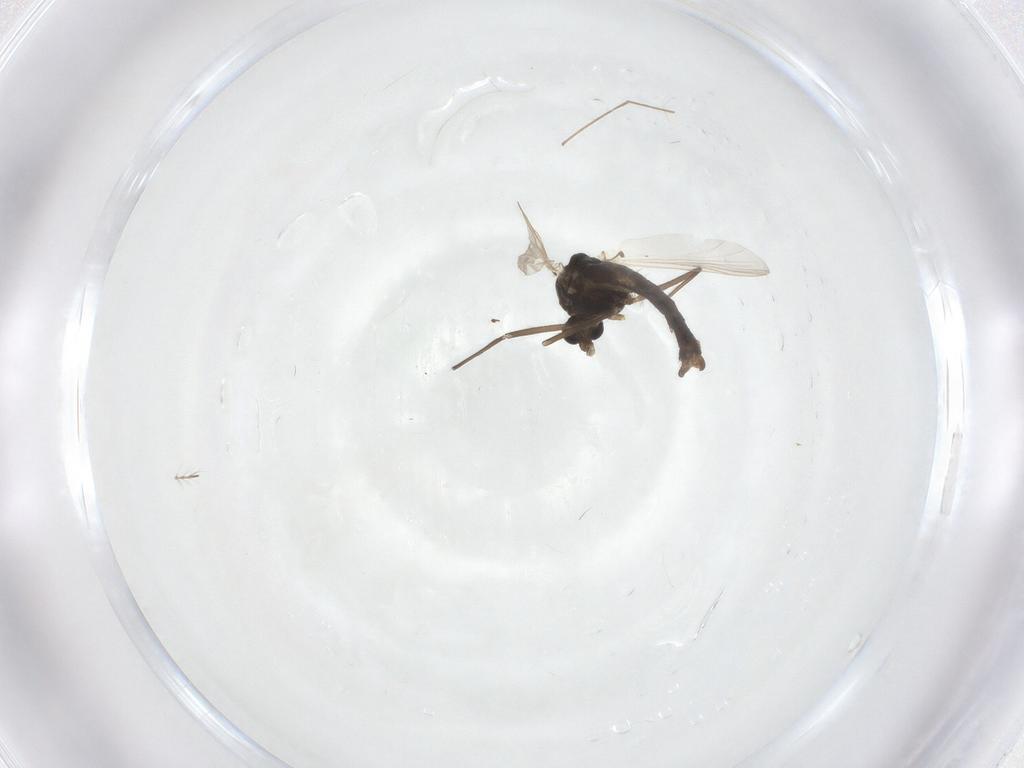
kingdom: Animalia
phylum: Arthropoda
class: Insecta
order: Diptera
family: Chironomidae
